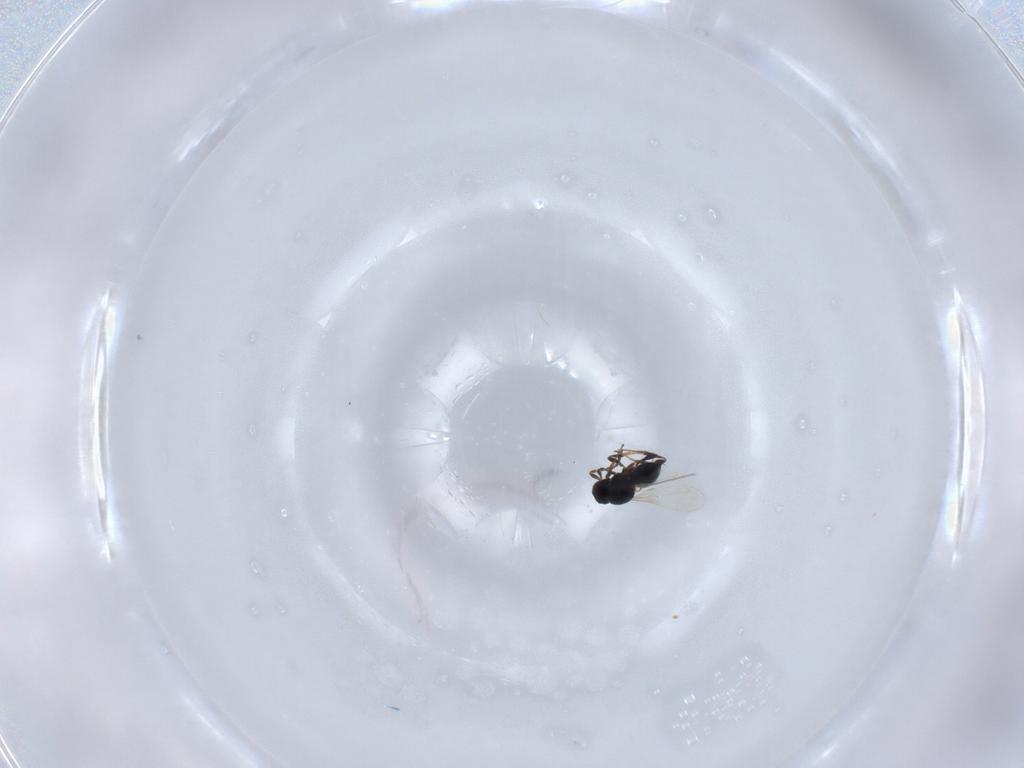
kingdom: Animalia
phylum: Arthropoda
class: Insecta
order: Hymenoptera
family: Platygastridae
